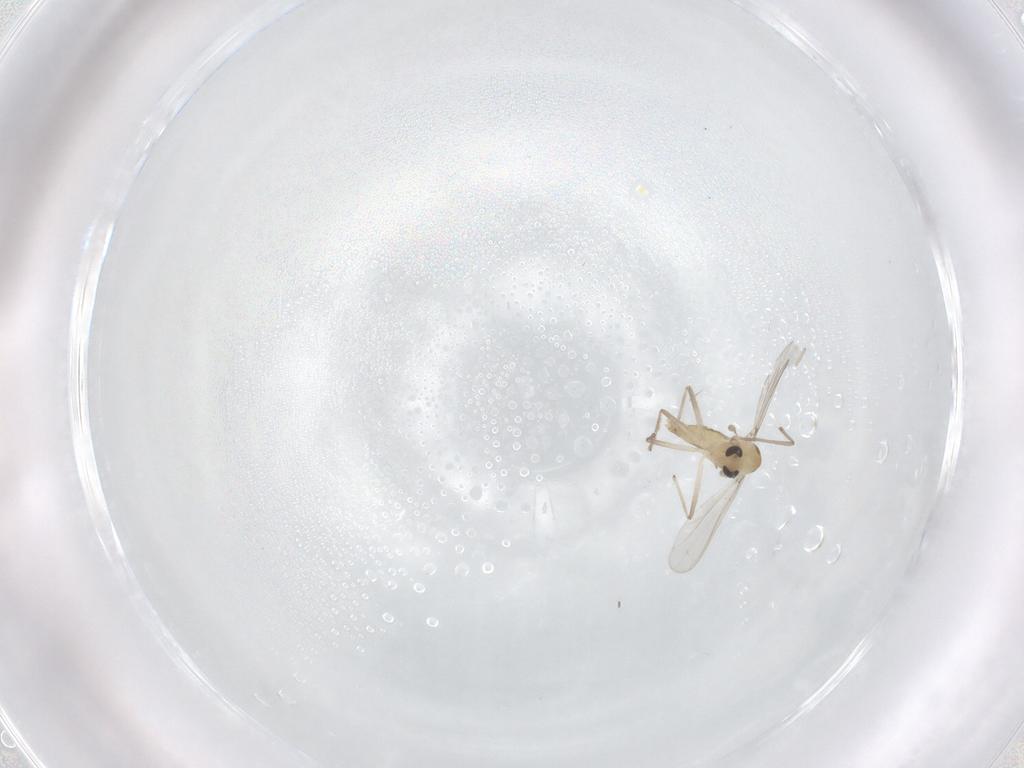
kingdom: Animalia
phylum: Arthropoda
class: Insecta
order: Diptera
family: Chironomidae
